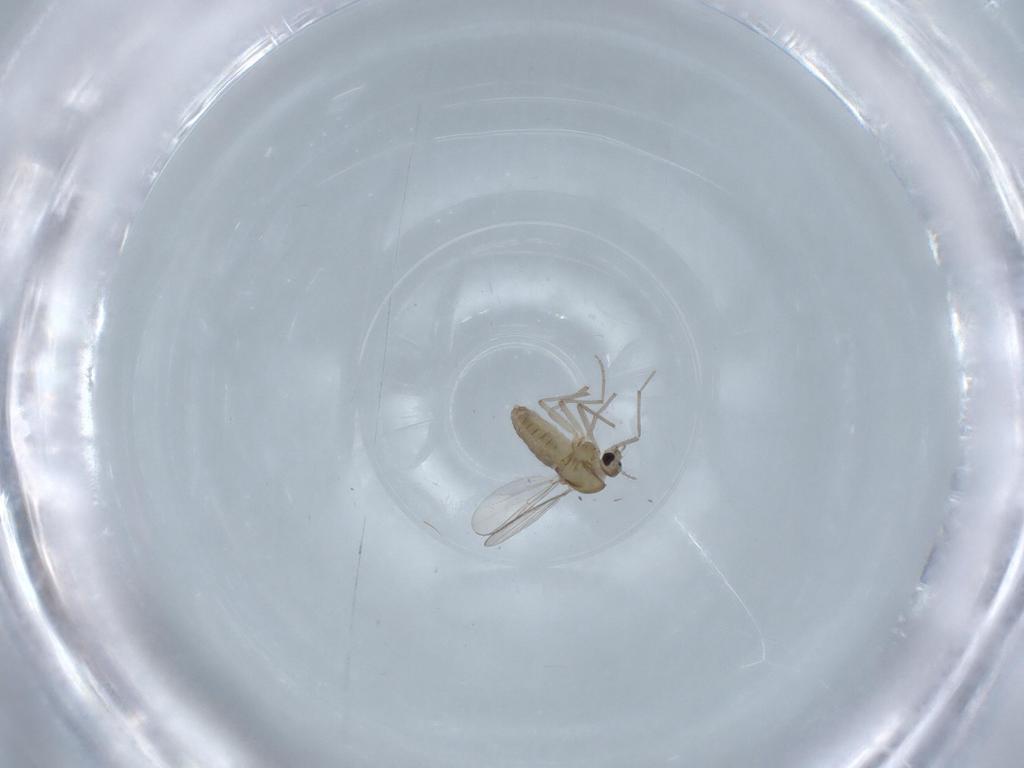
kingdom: Animalia
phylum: Arthropoda
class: Insecta
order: Diptera
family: Chironomidae
